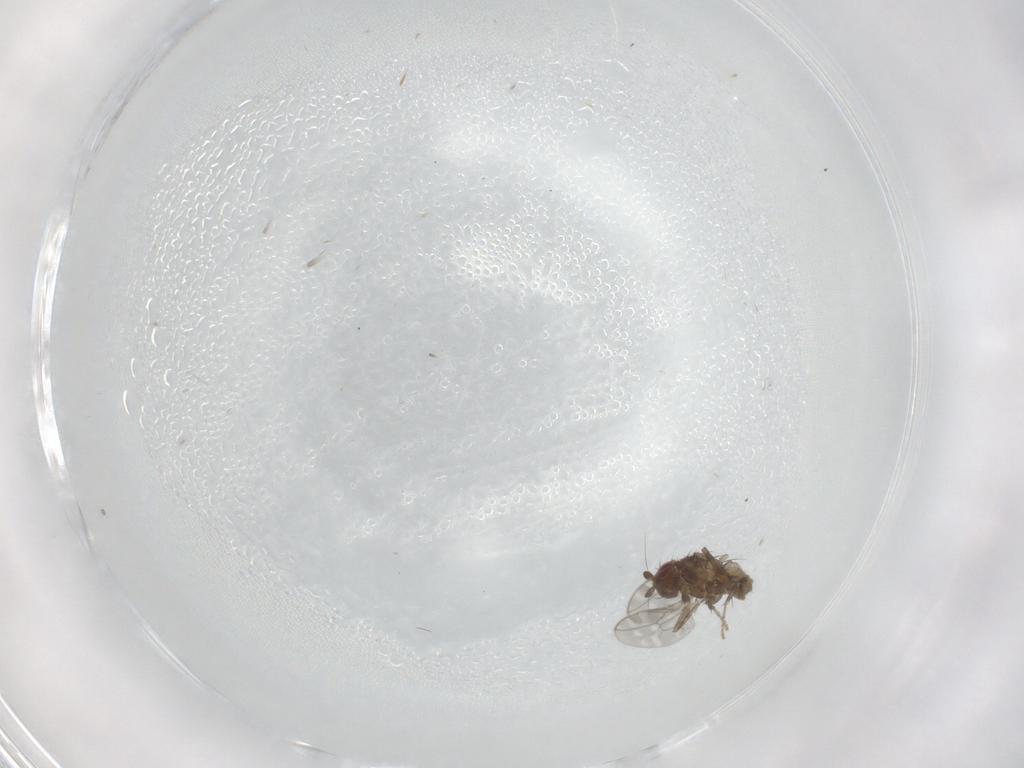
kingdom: Animalia
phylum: Arthropoda
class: Insecta
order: Diptera
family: Sphaeroceridae
